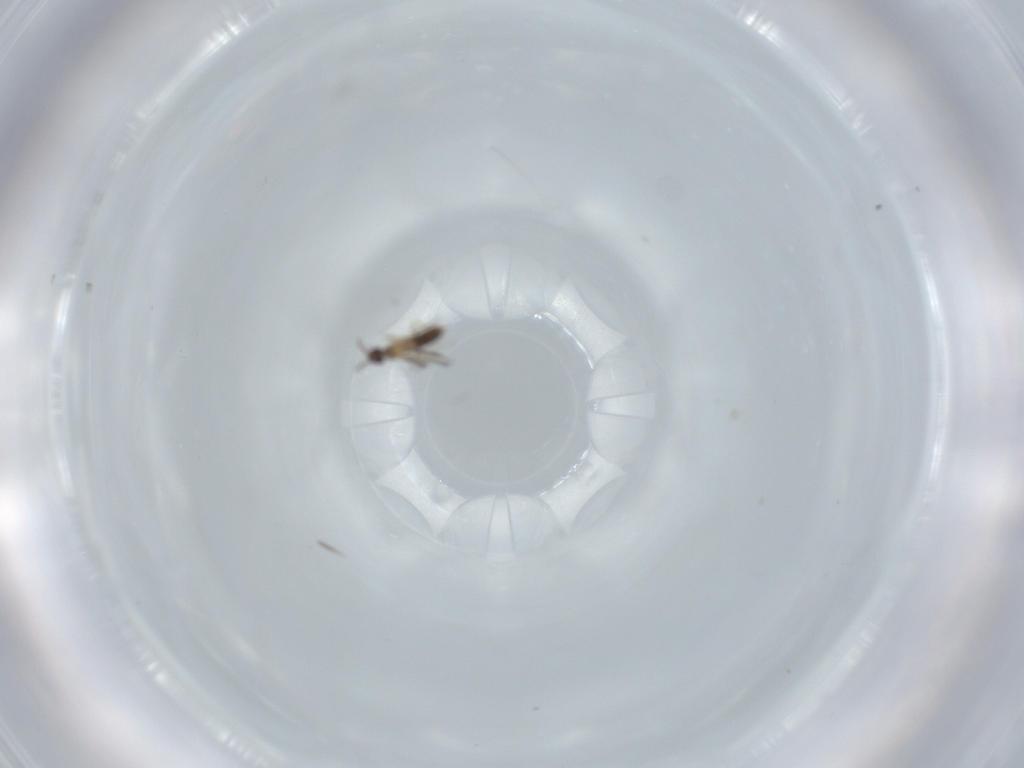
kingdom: Animalia
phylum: Arthropoda
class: Insecta
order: Hymenoptera
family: Mymaridae
